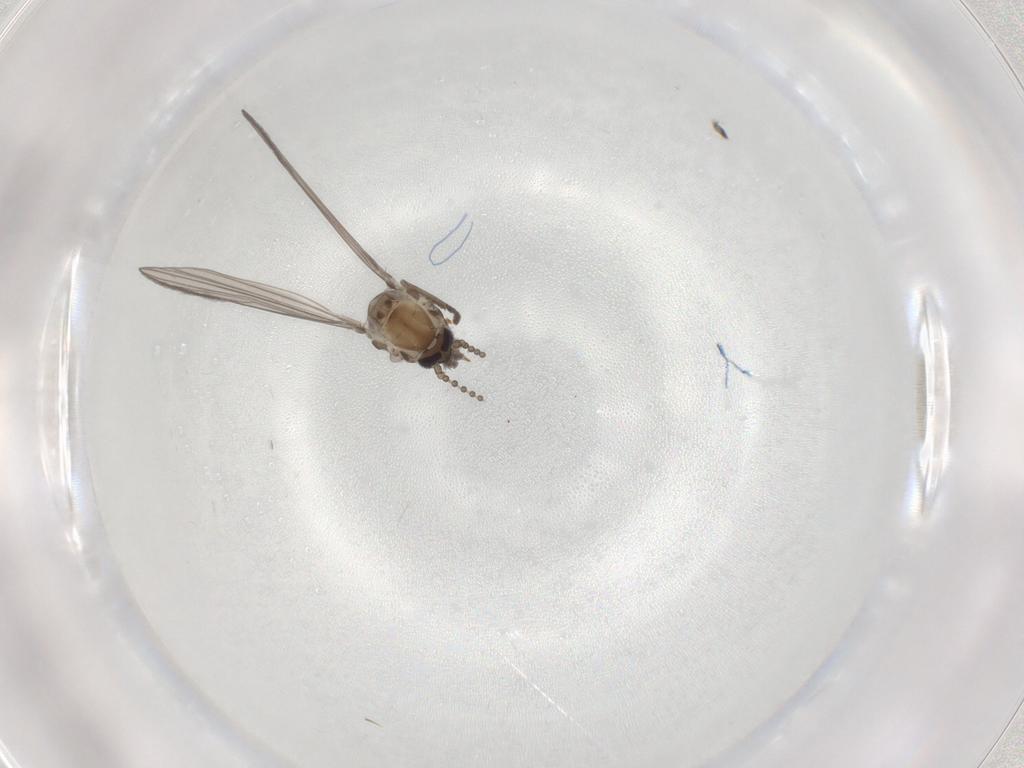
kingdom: Animalia
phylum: Arthropoda
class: Insecta
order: Diptera
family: Psychodidae
